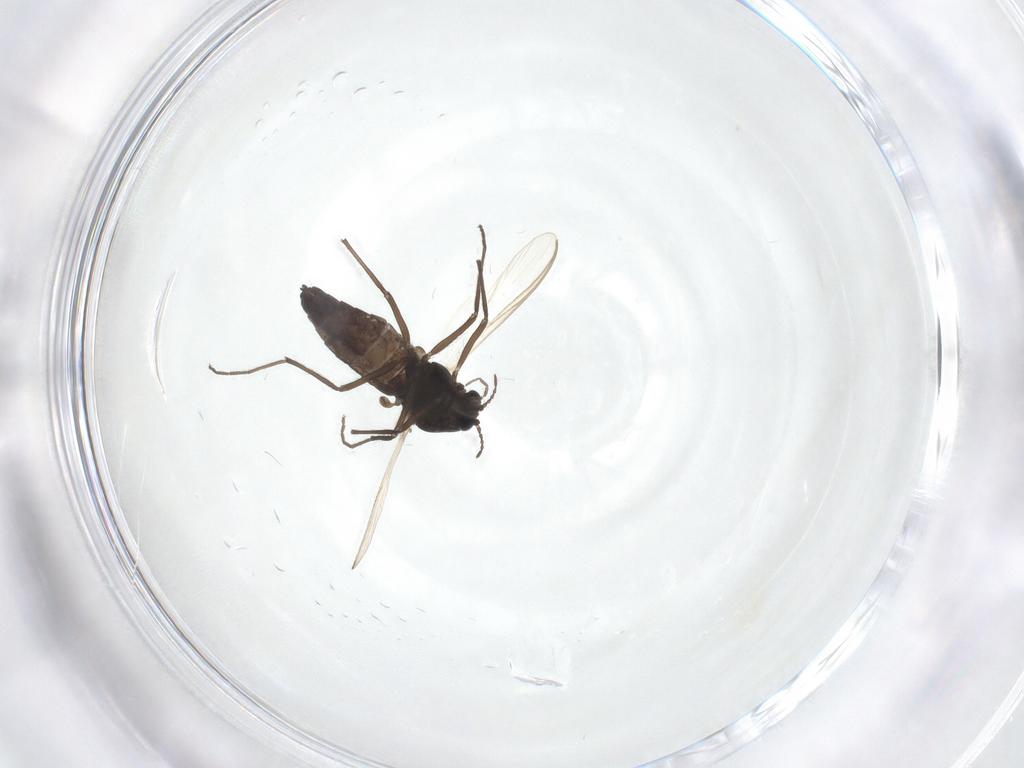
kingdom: Animalia
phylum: Arthropoda
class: Insecta
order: Diptera
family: Chironomidae
